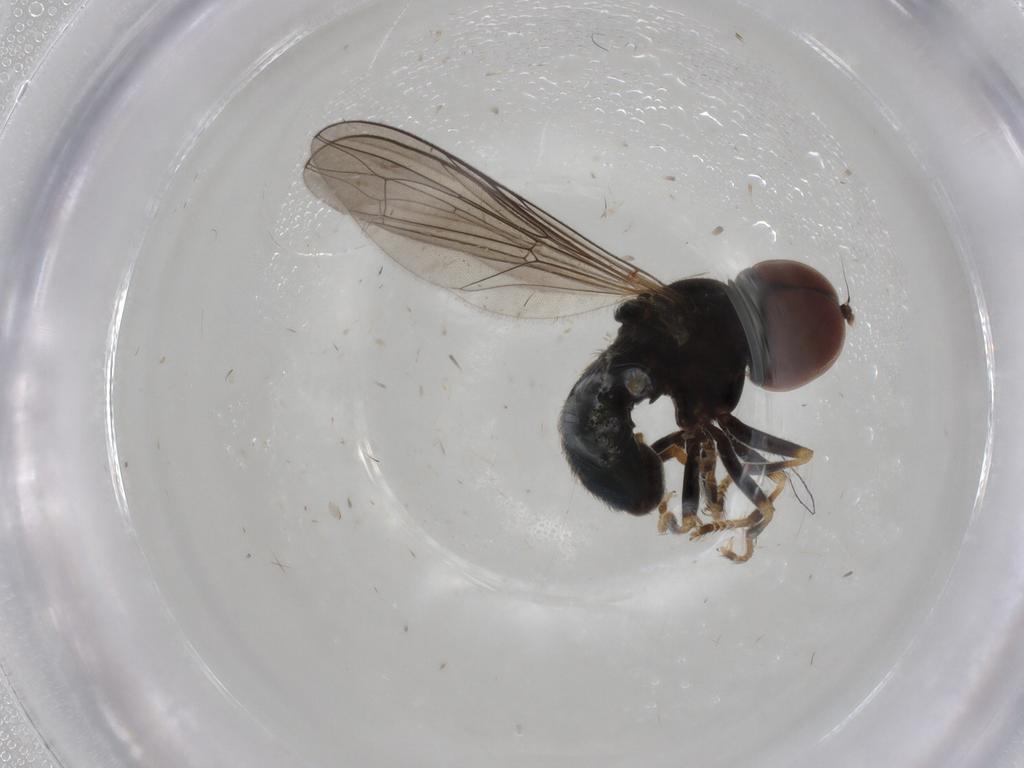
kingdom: Animalia
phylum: Arthropoda
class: Insecta
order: Diptera
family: Pipunculidae
